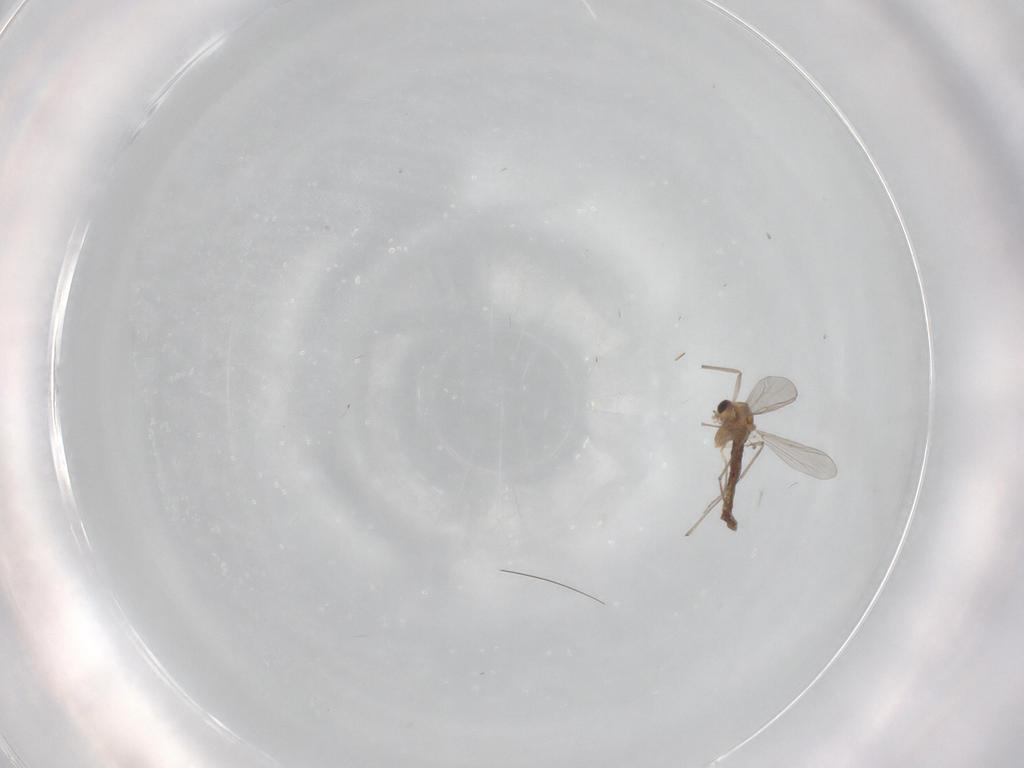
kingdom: Animalia
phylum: Arthropoda
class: Insecta
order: Diptera
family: Chironomidae
